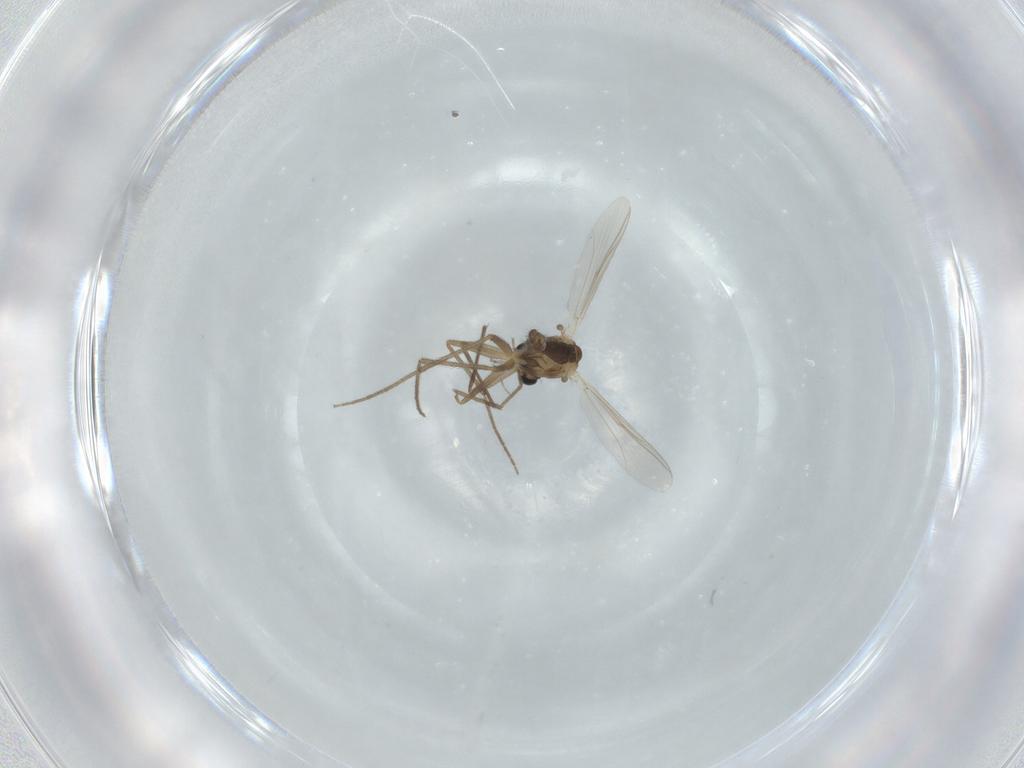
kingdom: Animalia
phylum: Arthropoda
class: Insecta
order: Diptera
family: Chironomidae
